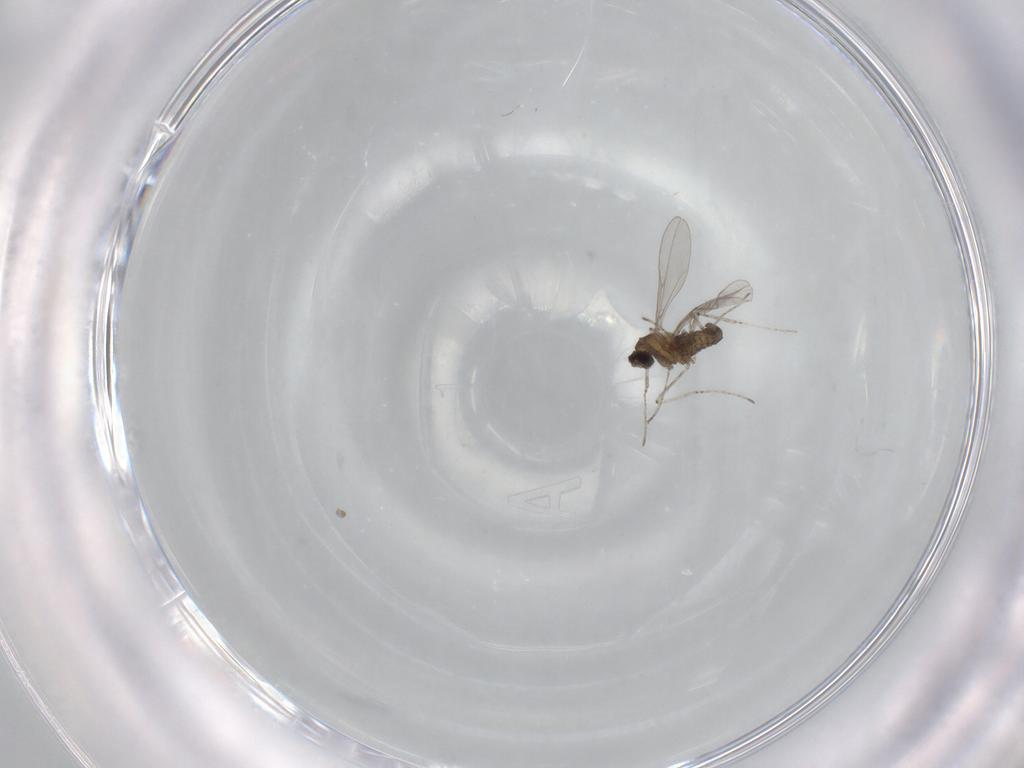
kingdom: Animalia
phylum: Arthropoda
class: Insecta
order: Diptera
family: Cecidomyiidae
